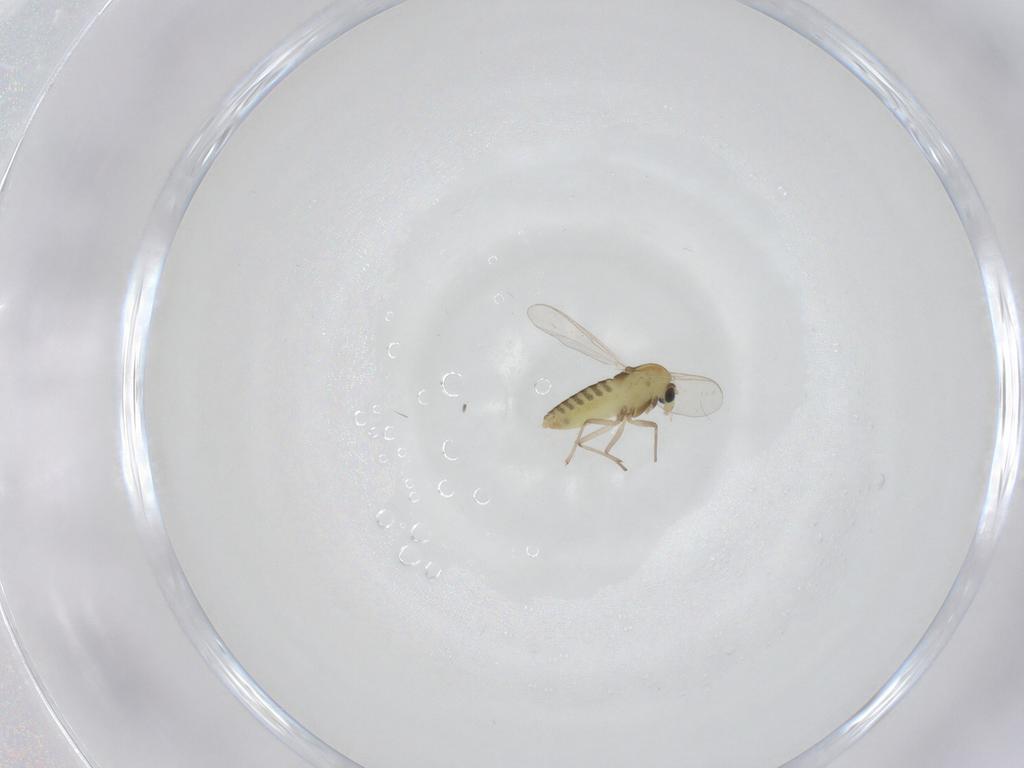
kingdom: Animalia
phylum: Arthropoda
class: Insecta
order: Diptera
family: Chironomidae
